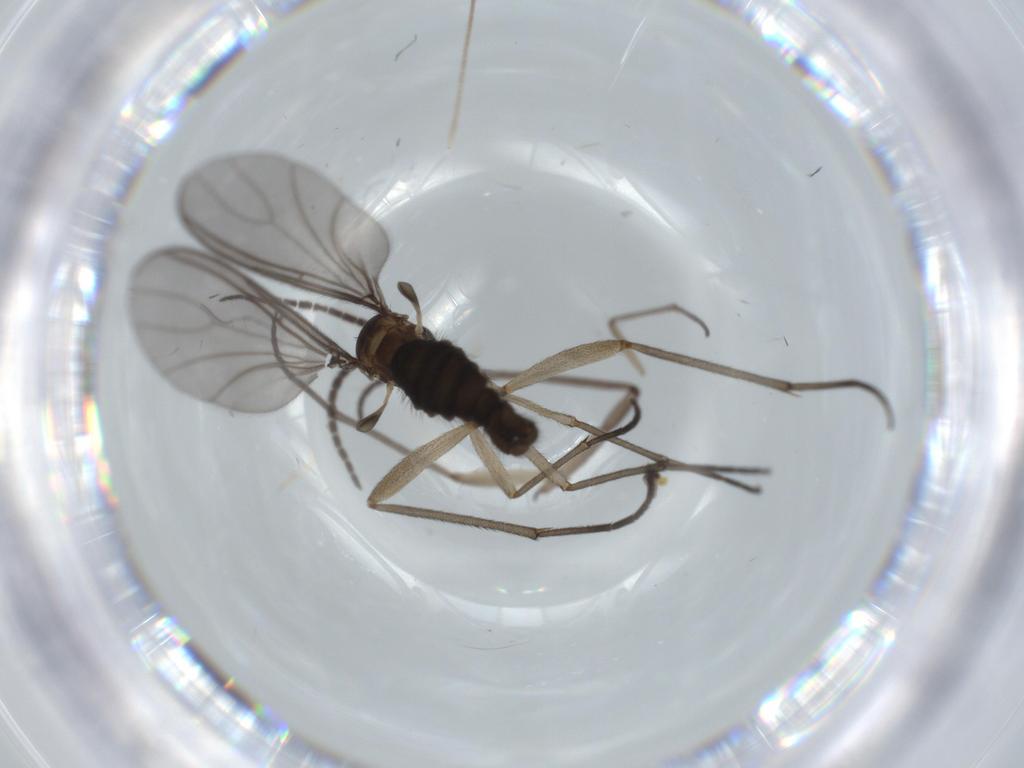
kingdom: Animalia
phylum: Arthropoda
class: Insecta
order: Diptera
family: Sciaridae
